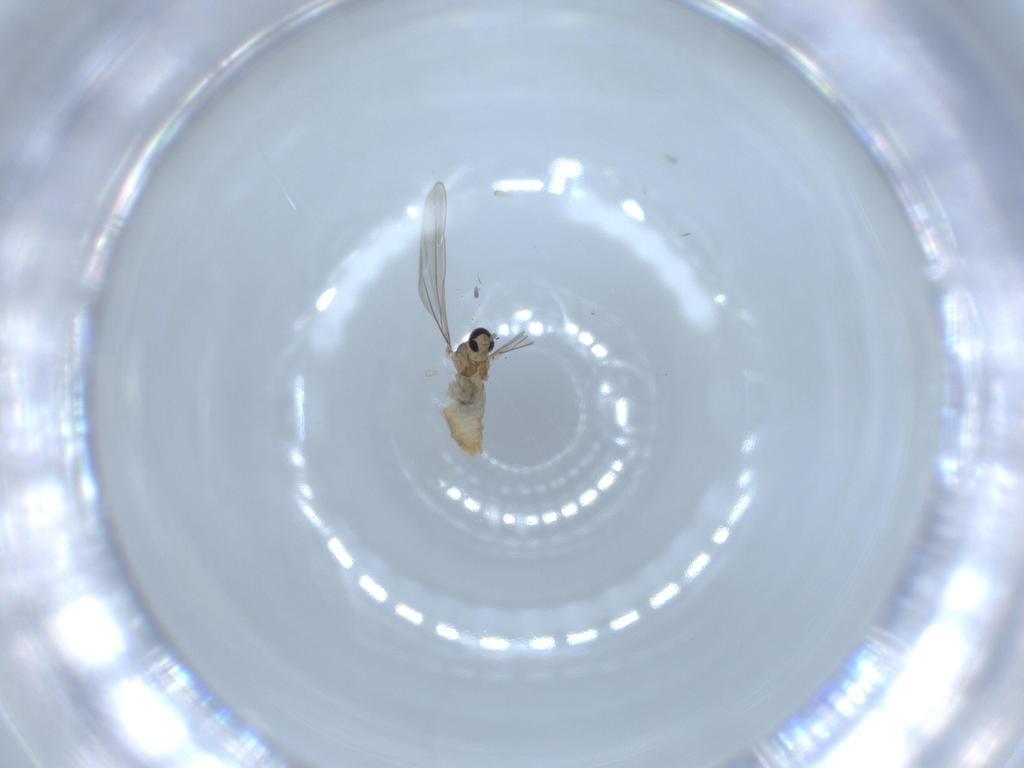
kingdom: Animalia
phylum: Arthropoda
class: Insecta
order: Diptera
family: Cecidomyiidae
